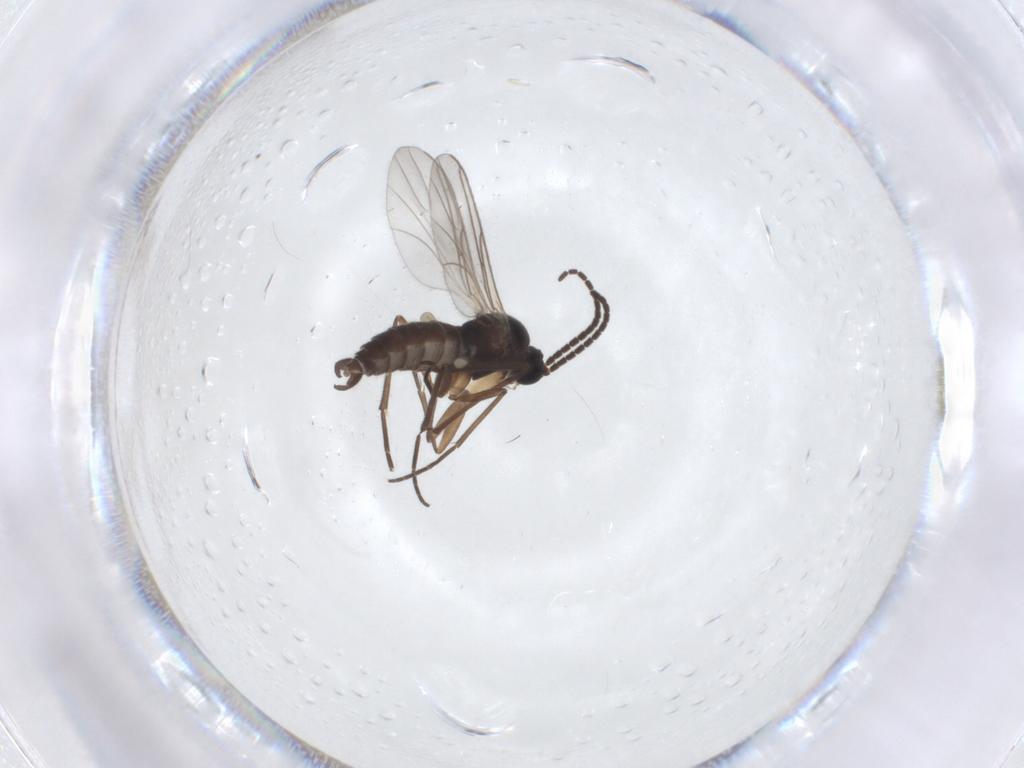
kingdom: Animalia
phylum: Arthropoda
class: Insecta
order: Diptera
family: Sciaridae
